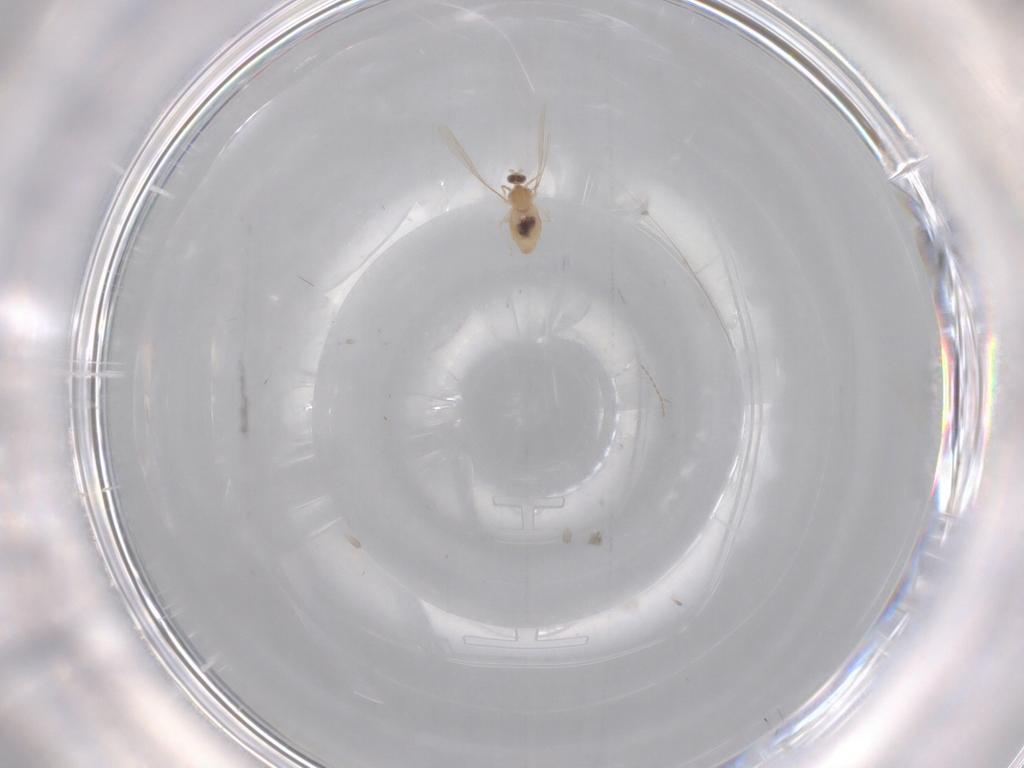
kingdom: Animalia
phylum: Arthropoda
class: Insecta
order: Diptera
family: Cecidomyiidae
